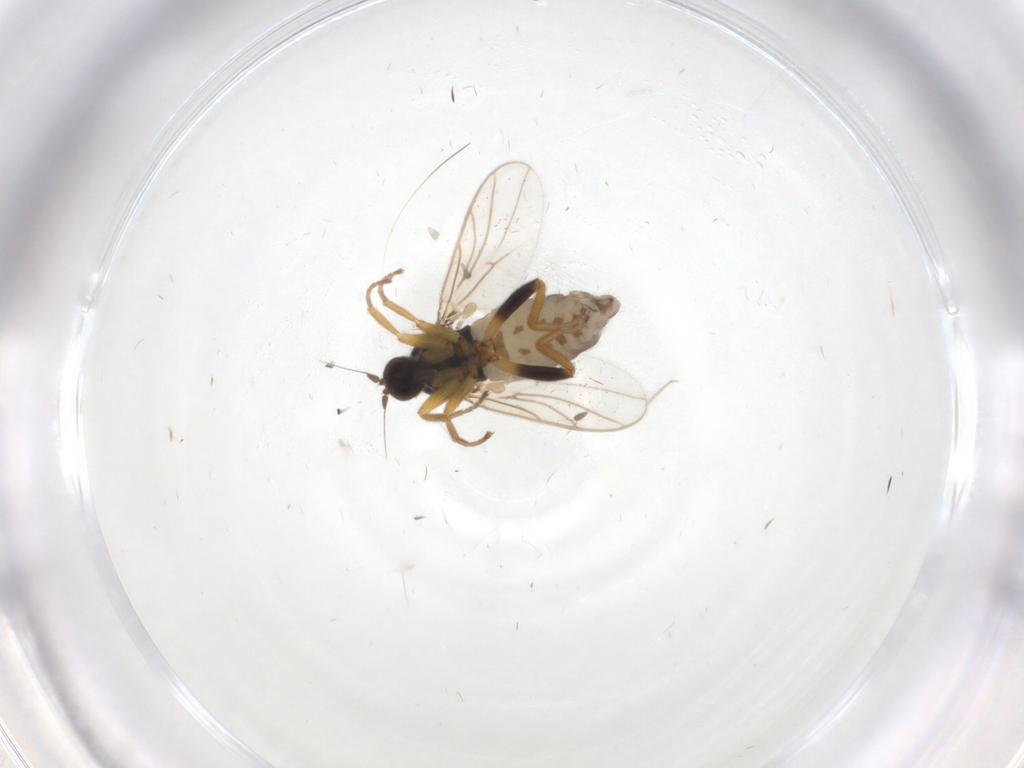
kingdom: Animalia
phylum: Arthropoda
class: Insecta
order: Diptera
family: Hybotidae
